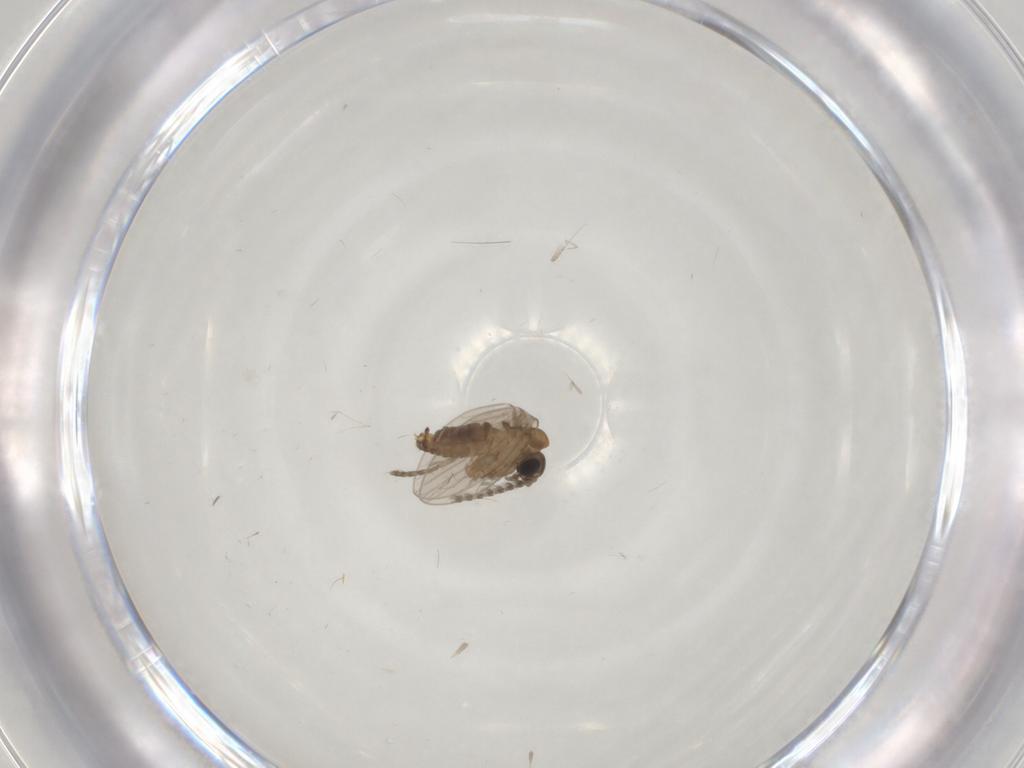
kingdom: Animalia
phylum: Arthropoda
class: Insecta
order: Diptera
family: Psychodidae
